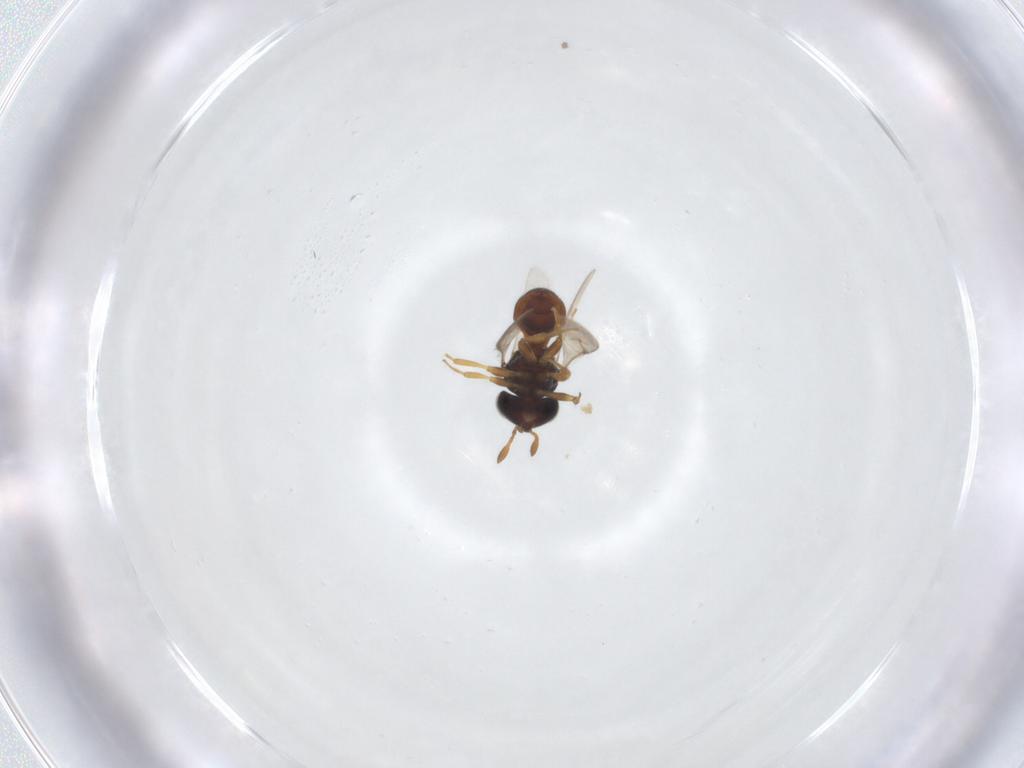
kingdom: Animalia
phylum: Arthropoda
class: Insecta
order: Hymenoptera
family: Scelionidae
